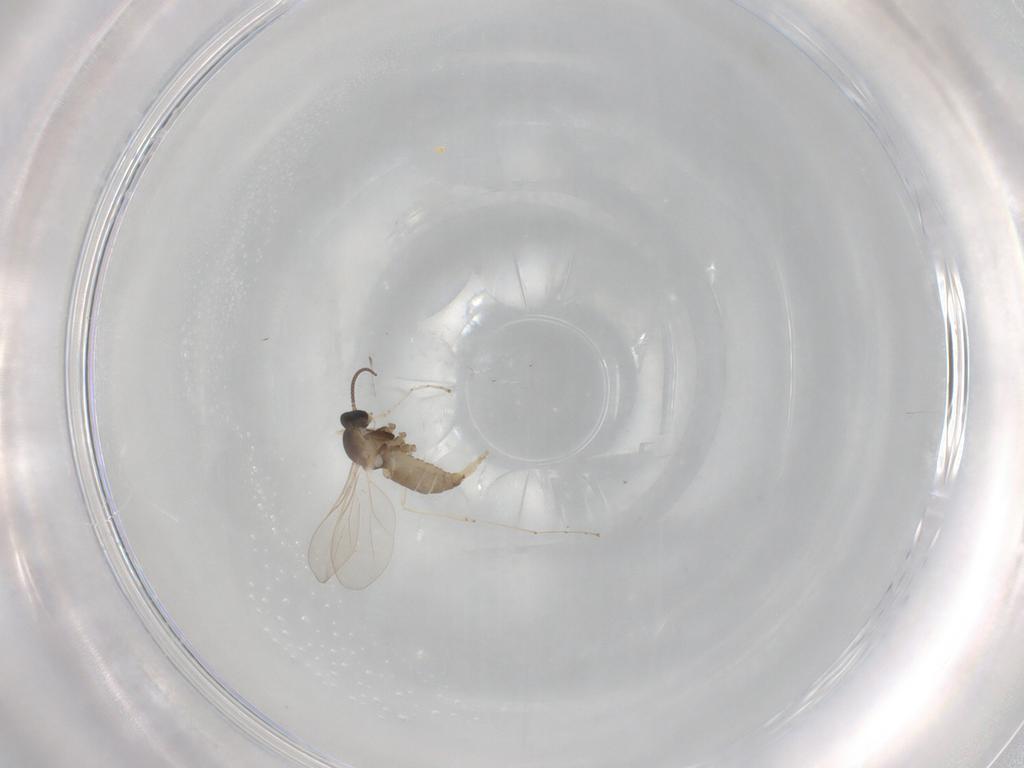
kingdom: Animalia
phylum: Arthropoda
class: Insecta
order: Diptera
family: Cecidomyiidae
